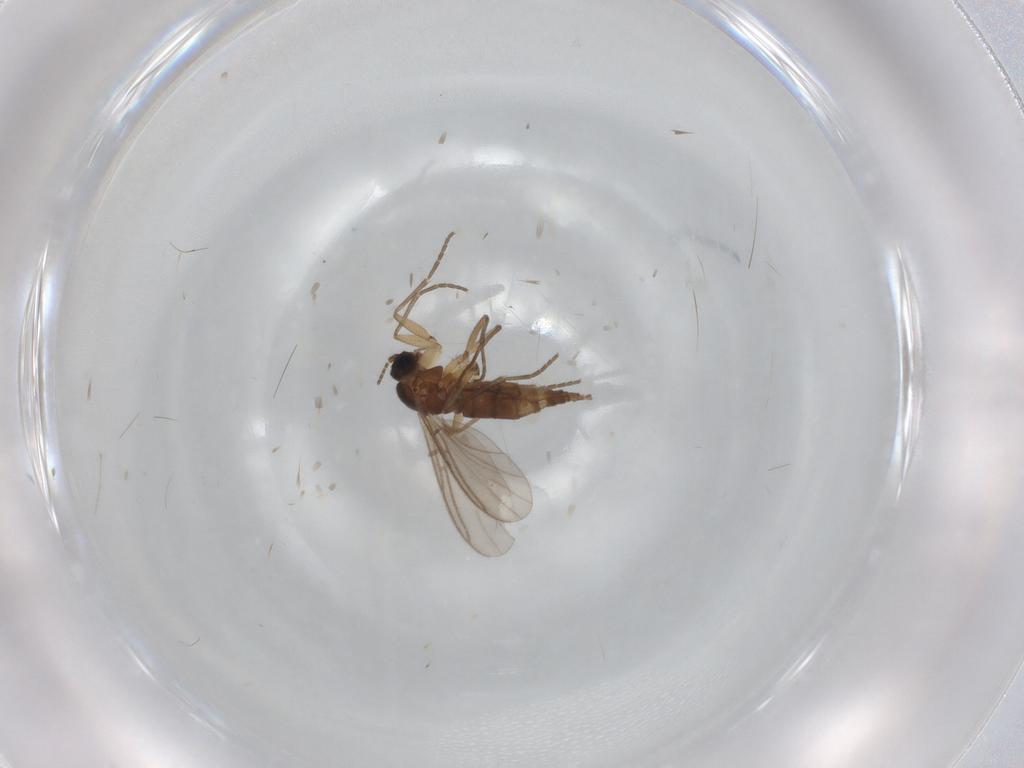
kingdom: Animalia
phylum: Arthropoda
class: Insecta
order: Diptera
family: Cecidomyiidae
